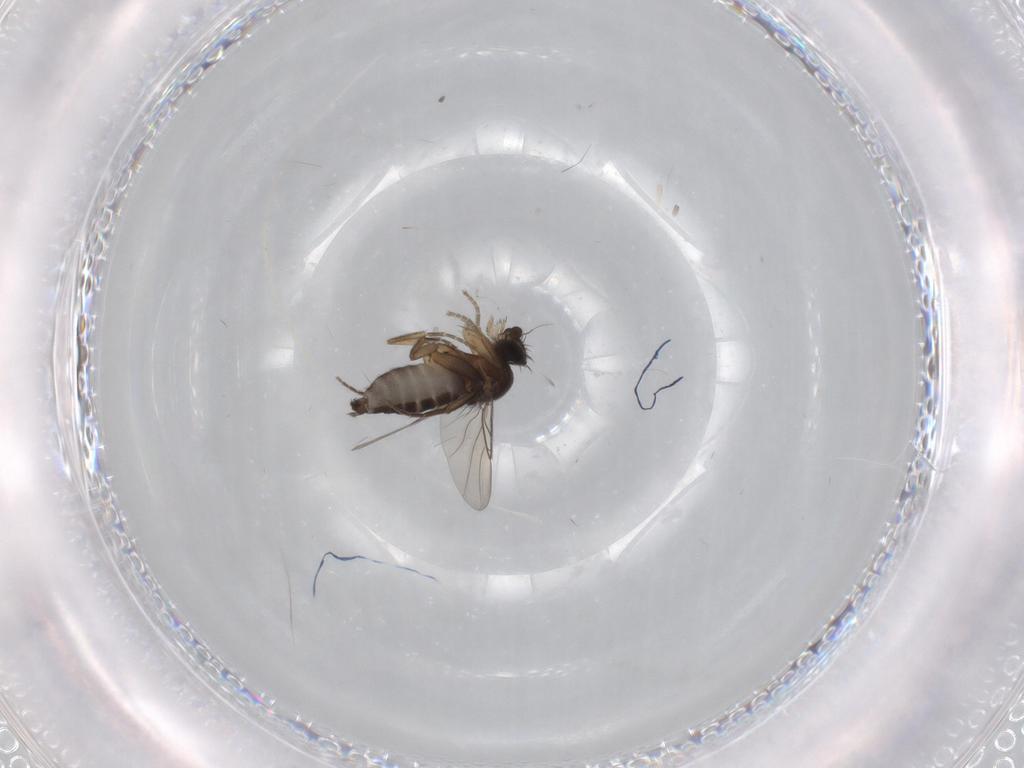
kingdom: Animalia
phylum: Arthropoda
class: Insecta
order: Diptera
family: Phoridae
